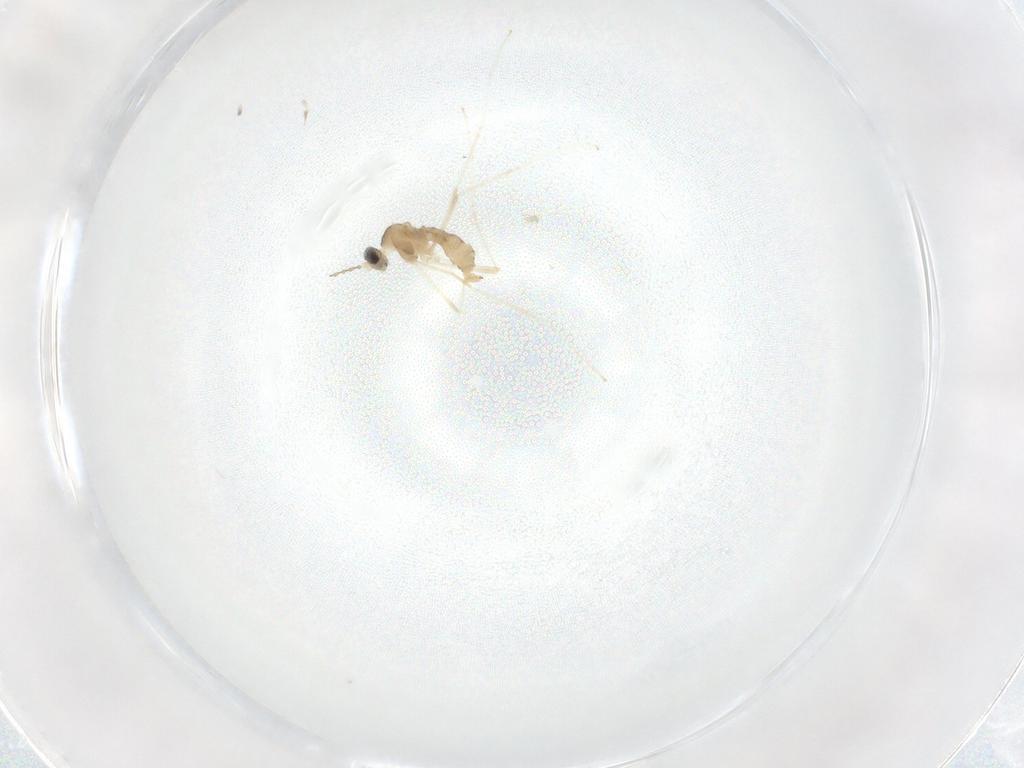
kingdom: Animalia
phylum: Arthropoda
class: Insecta
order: Diptera
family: Cecidomyiidae
